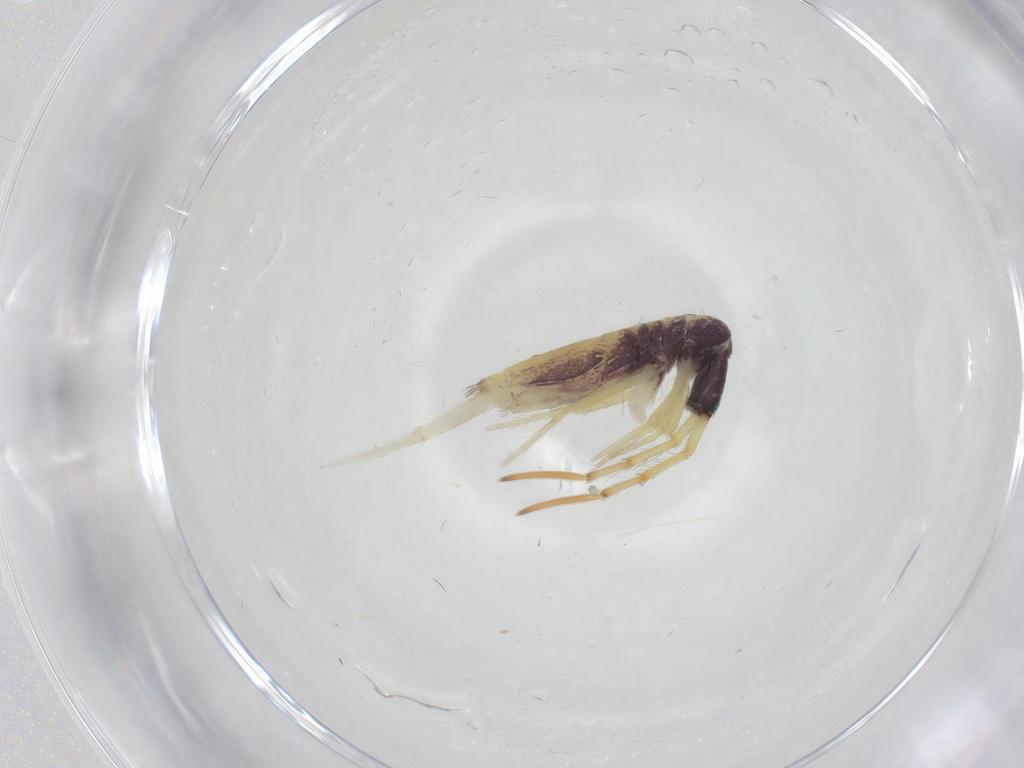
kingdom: Animalia
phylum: Arthropoda
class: Collembola
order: Entomobryomorpha
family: Entomobryidae
